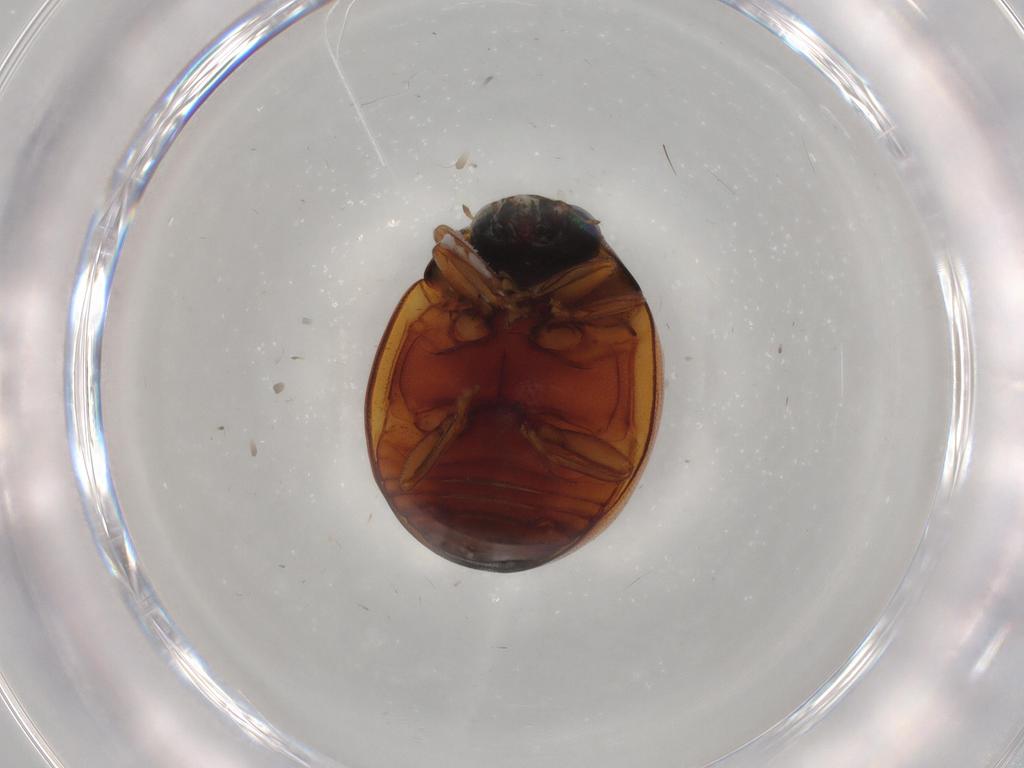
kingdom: Animalia
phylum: Arthropoda
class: Insecta
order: Coleoptera
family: Coccinellidae
